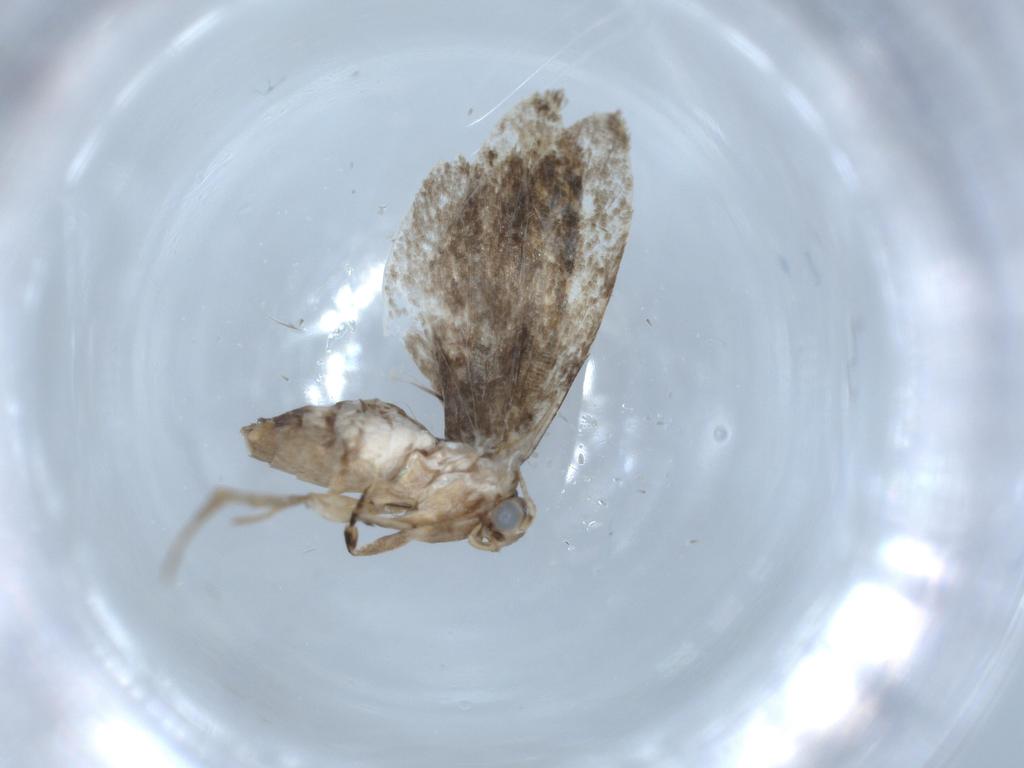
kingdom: Animalia
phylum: Arthropoda
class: Insecta
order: Lepidoptera
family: Tineidae
